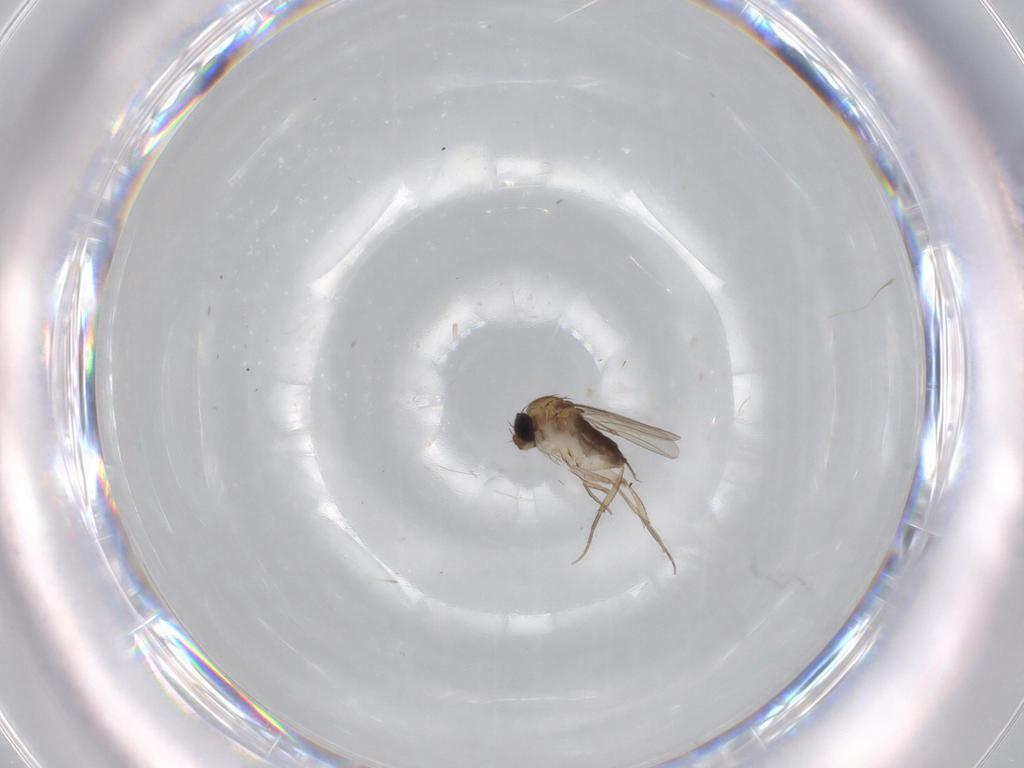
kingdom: Animalia
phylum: Arthropoda
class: Insecta
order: Diptera
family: Phoridae
